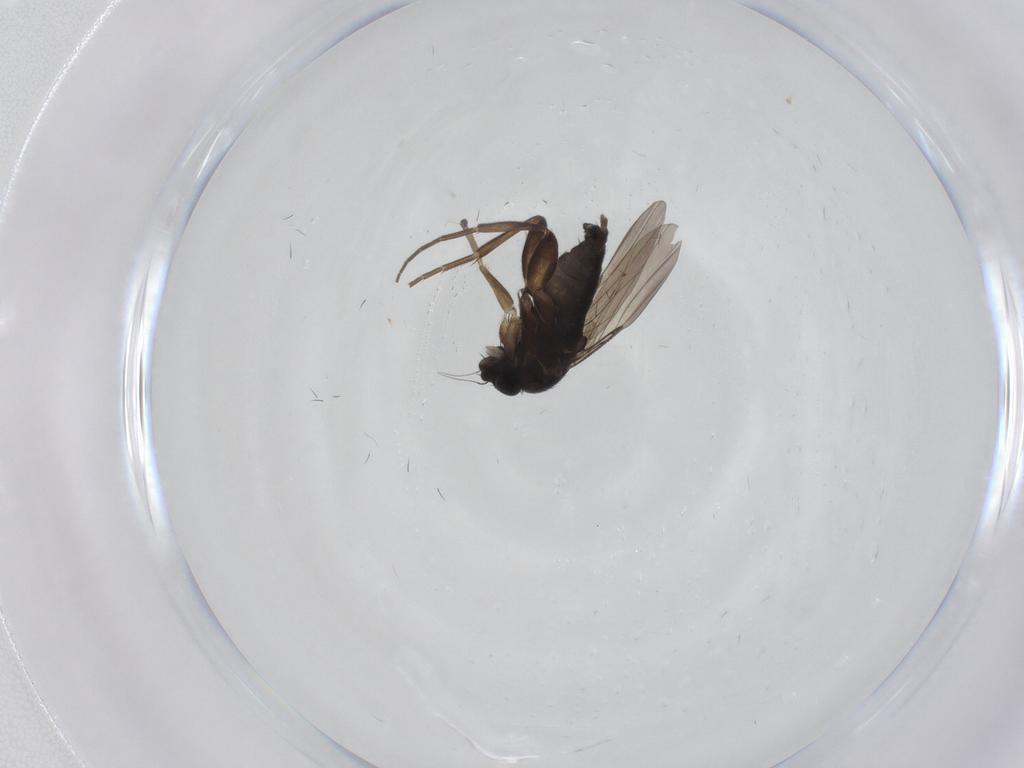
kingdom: Animalia
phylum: Arthropoda
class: Insecta
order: Diptera
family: Phoridae
